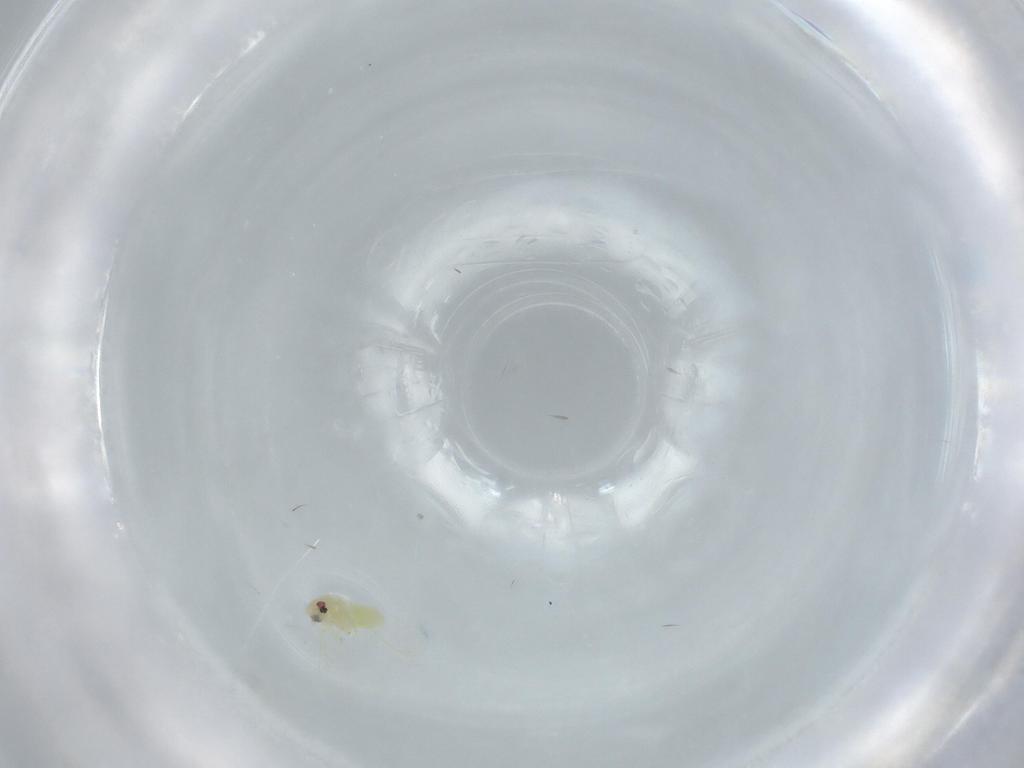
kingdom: Animalia
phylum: Arthropoda
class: Insecta
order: Hemiptera
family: Aleyrodidae
